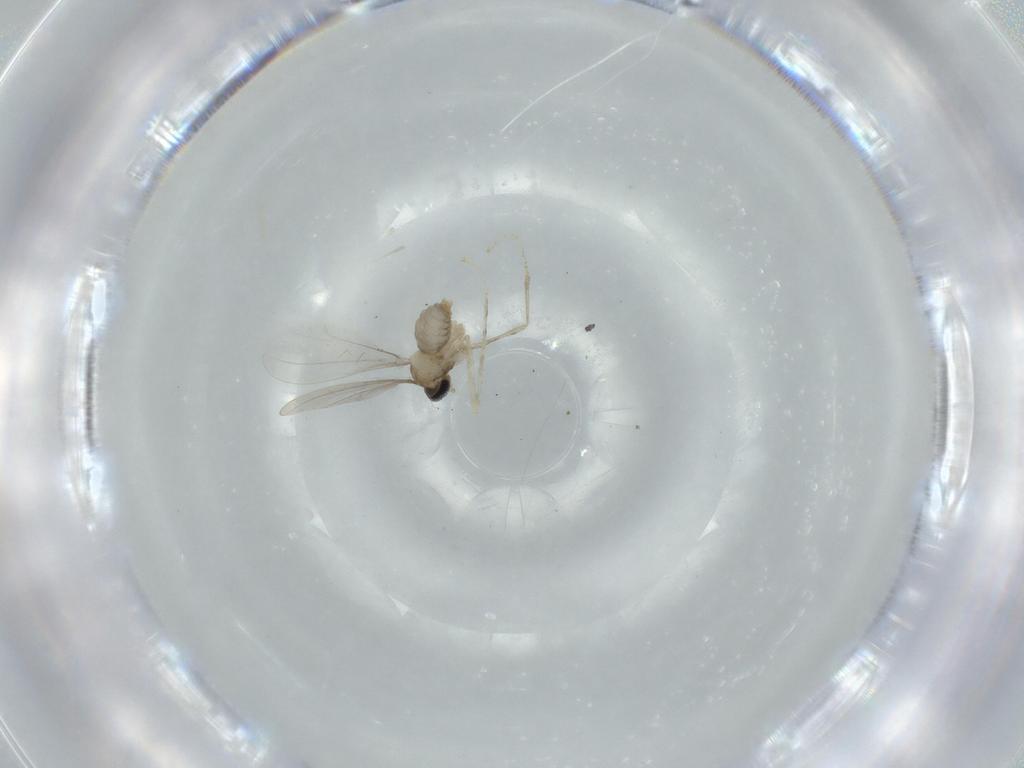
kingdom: Animalia
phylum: Arthropoda
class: Insecta
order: Diptera
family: Cecidomyiidae
